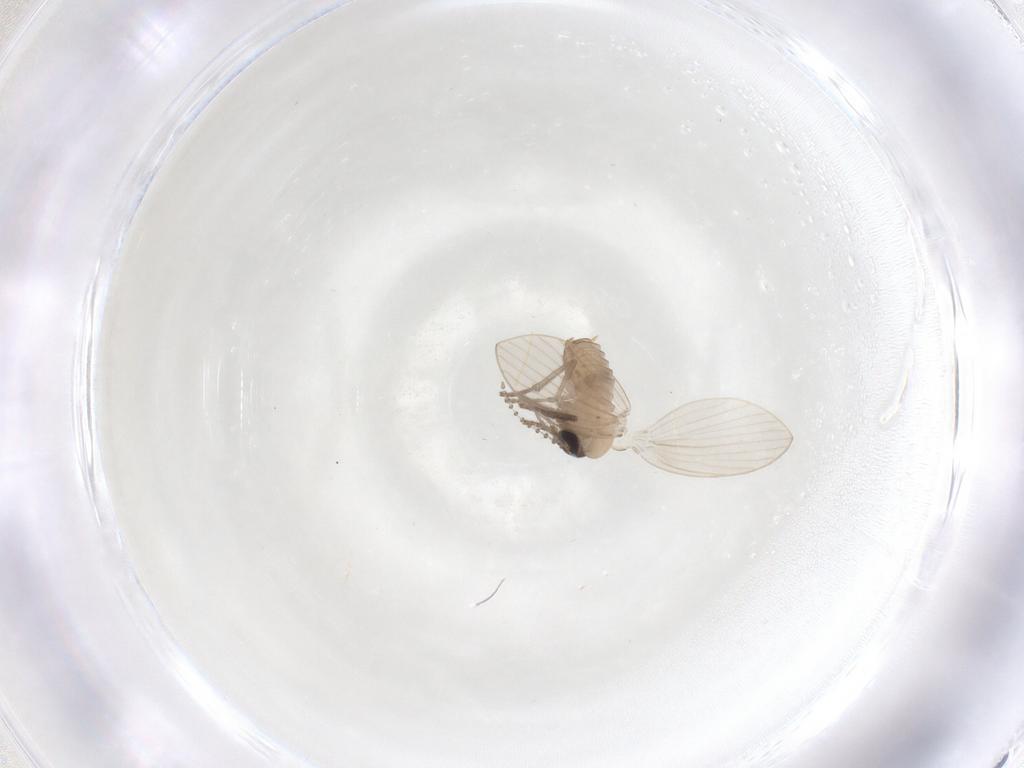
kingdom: Animalia
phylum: Arthropoda
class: Insecta
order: Diptera
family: Psychodidae
